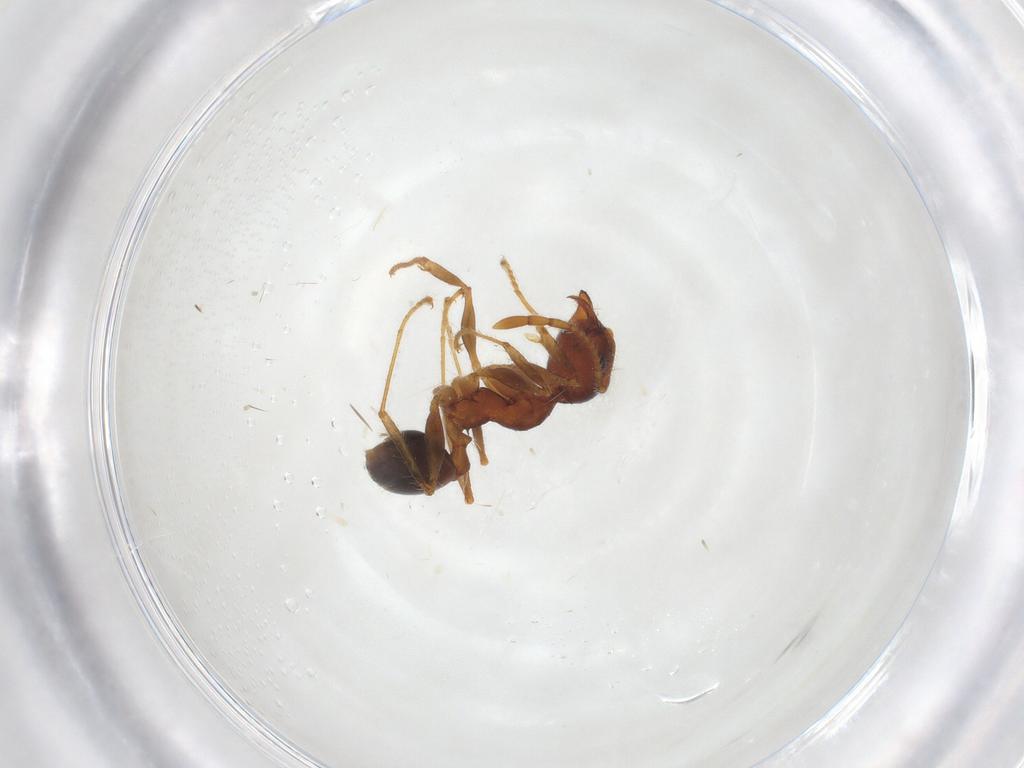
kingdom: Animalia
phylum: Arthropoda
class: Insecta
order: Hymenoptera
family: Formicidae
